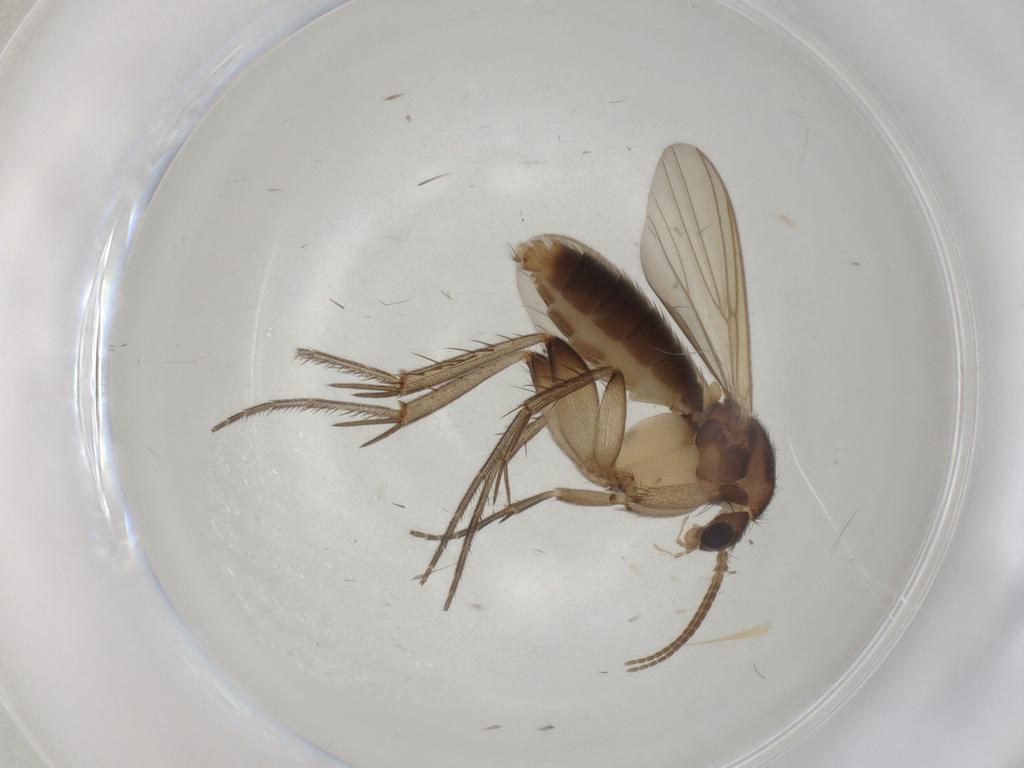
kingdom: Animalia
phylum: Arthropoda
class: Insecta
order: Diptera
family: Mycetophilidae
